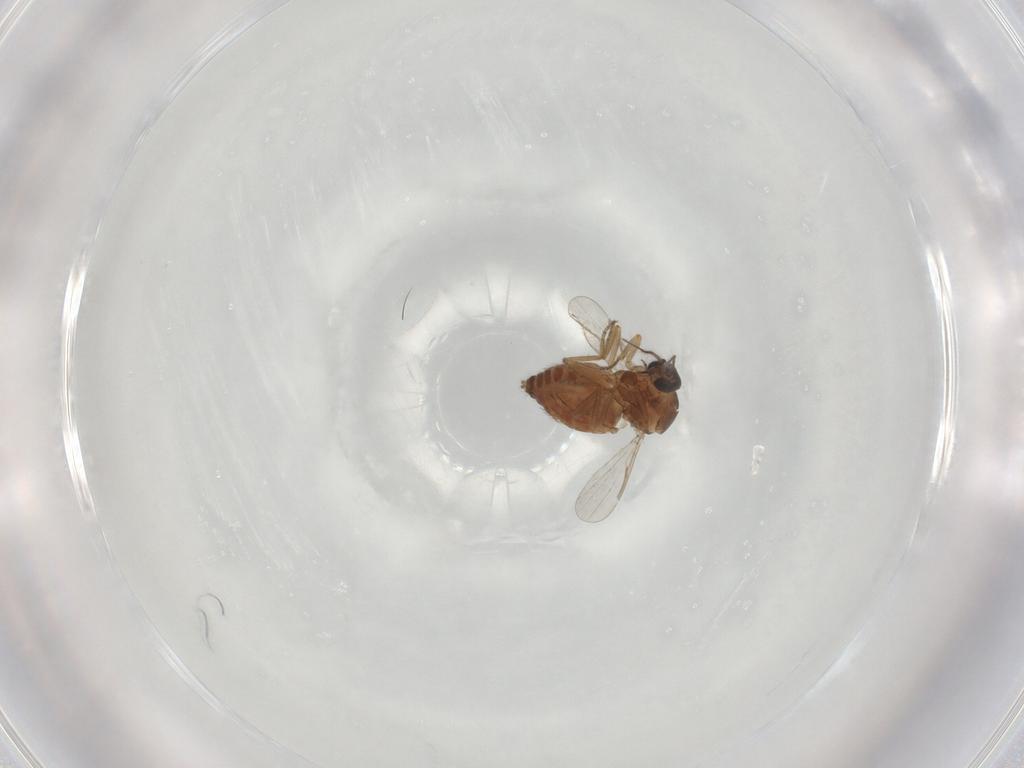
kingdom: Animalia
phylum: Arthropoda
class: Insecta
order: Diptera
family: Ceratopogonidae
